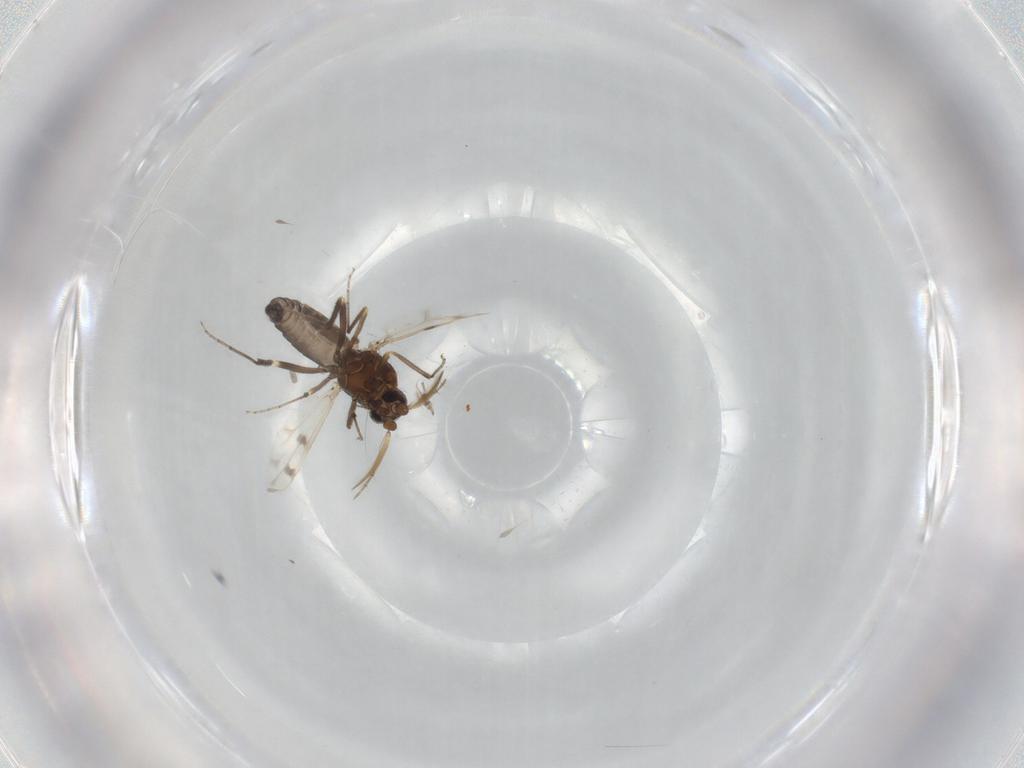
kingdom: Animalia
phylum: Arthropoda
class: Insecta
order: Diptera
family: Ceratopogonidae
